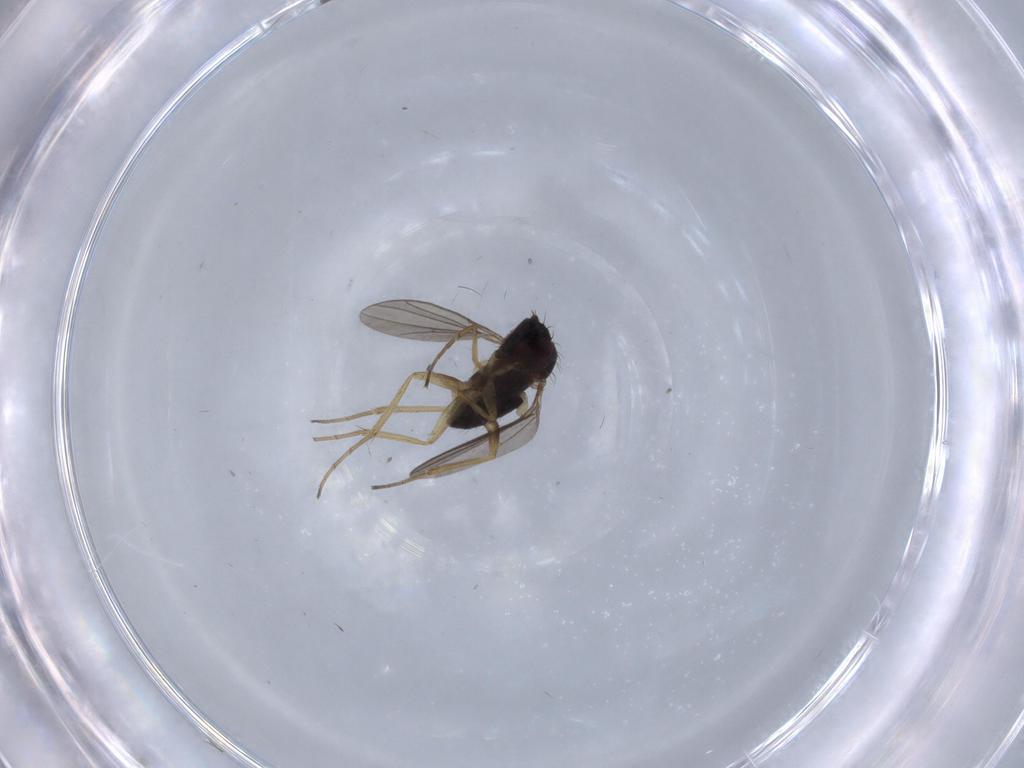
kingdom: Animalia
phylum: Arthropoda
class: Insecta
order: Diptera
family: Dolichopodidae
